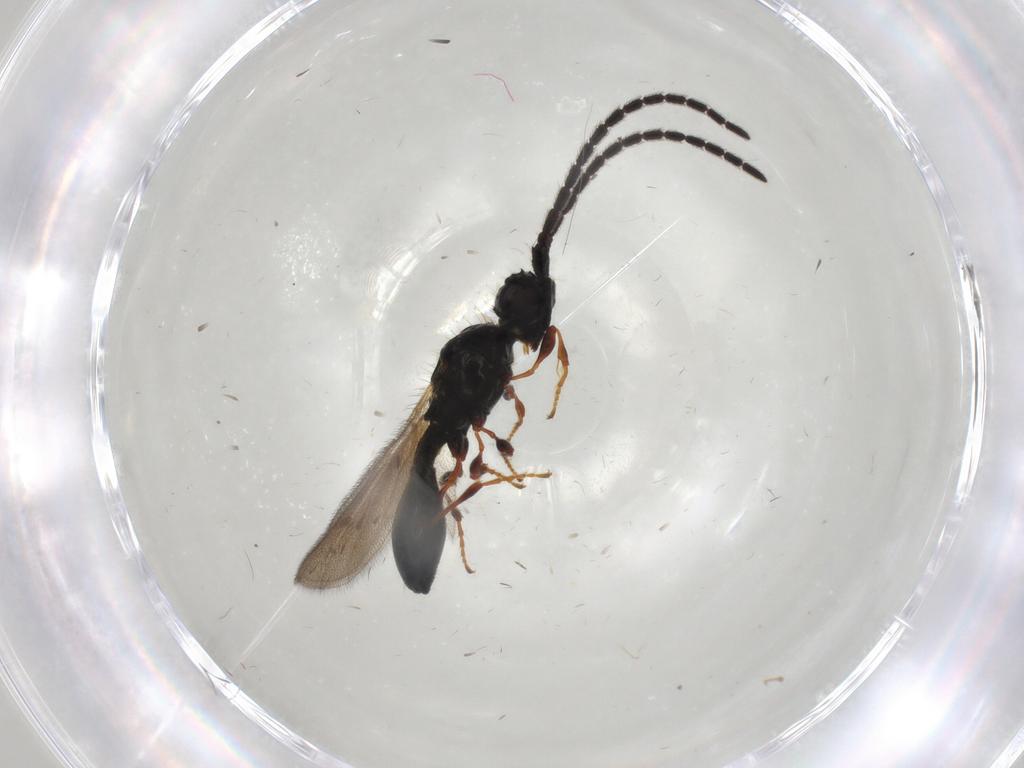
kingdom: Animalia
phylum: Arthropoda
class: Insecta
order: Hymenoptera
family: Diapriidae
